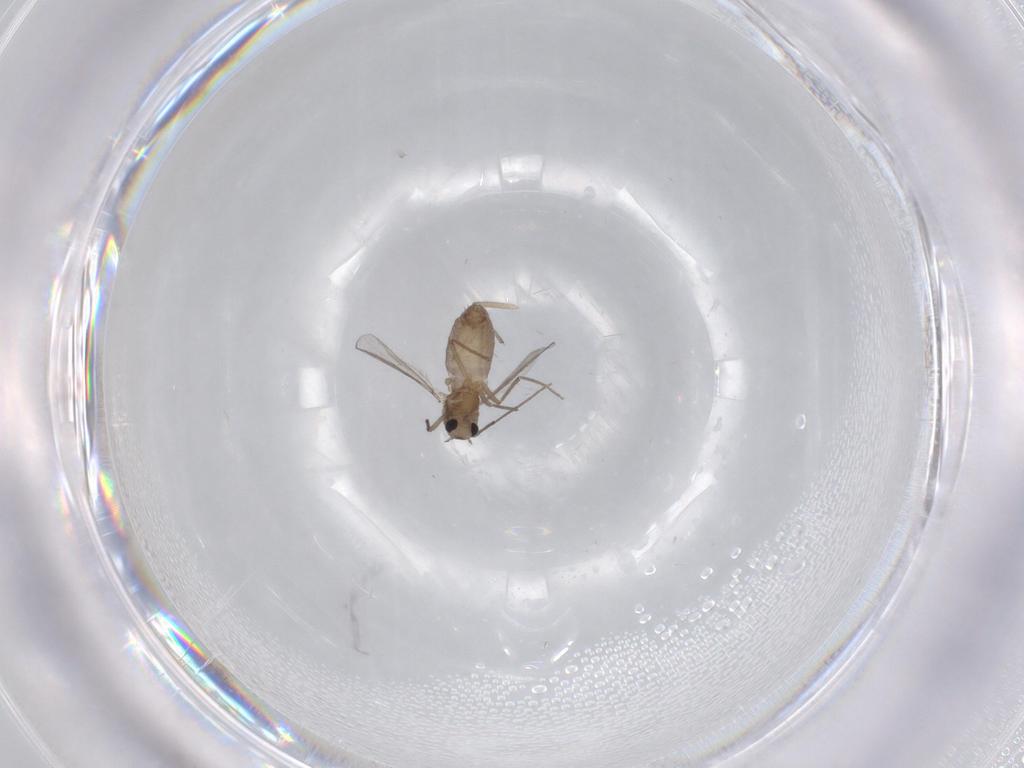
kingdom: Animalia
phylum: Arthropoda
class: Insecta
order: Diptera
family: Chironomidae
